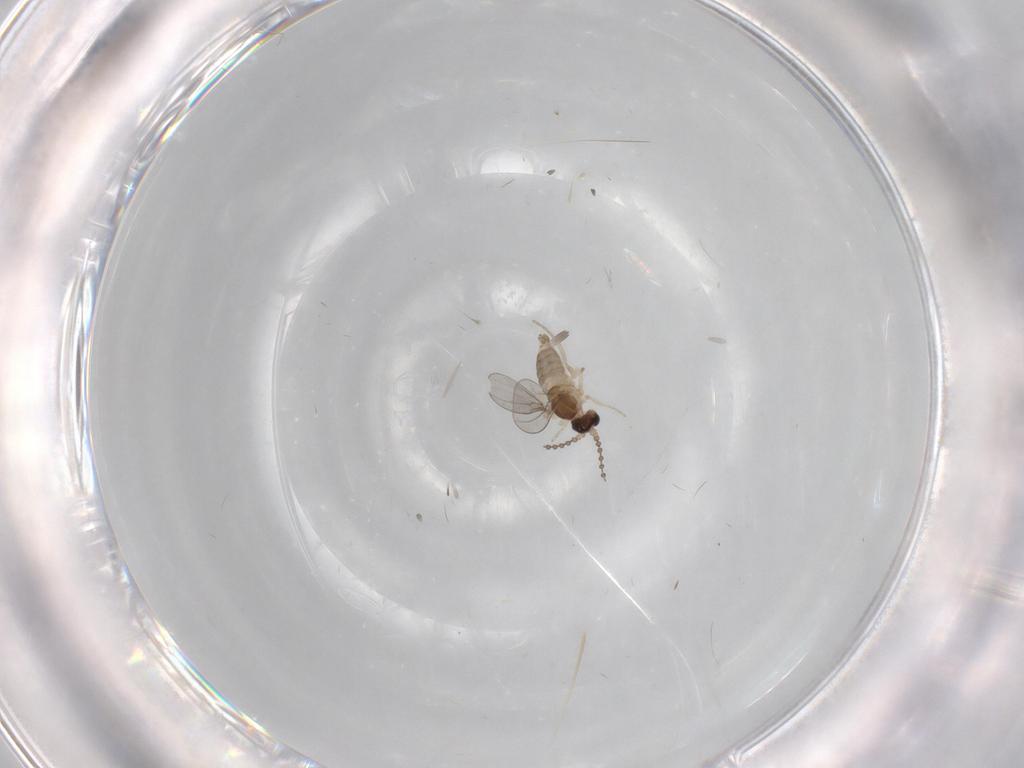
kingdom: Animalia
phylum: Arthropoda
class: Insecta
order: Diptera
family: Cecidomyiidae
